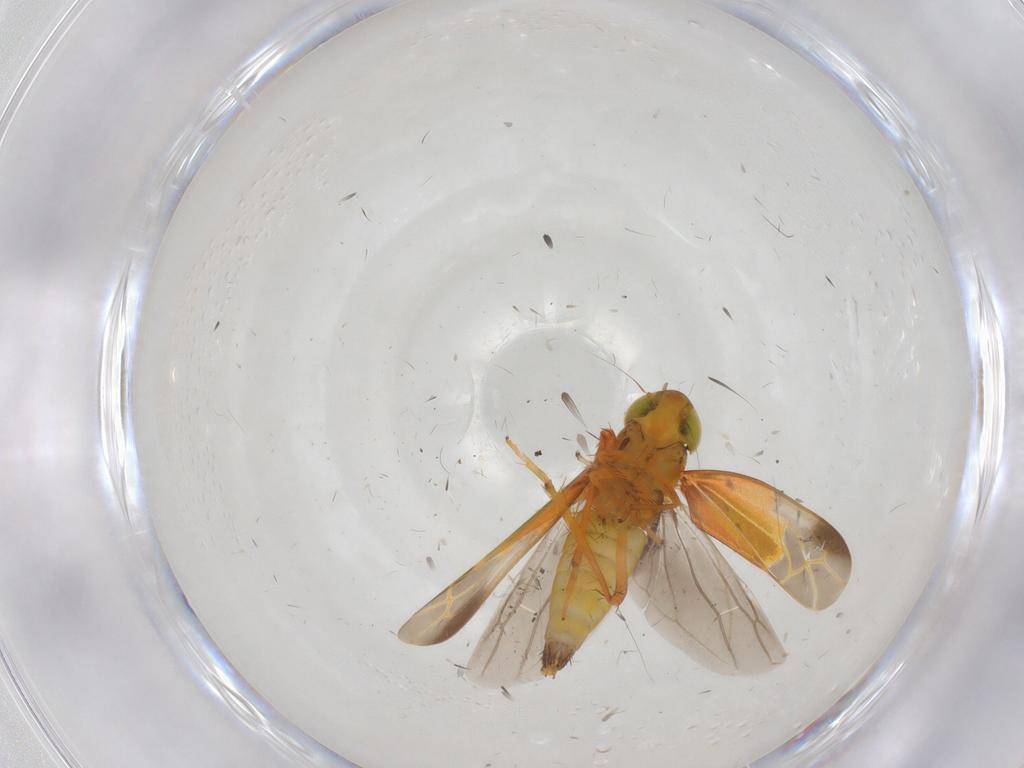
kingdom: Animalia
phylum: Arthropoda
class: Insecta
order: Hemiptera
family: Cicadellidae
